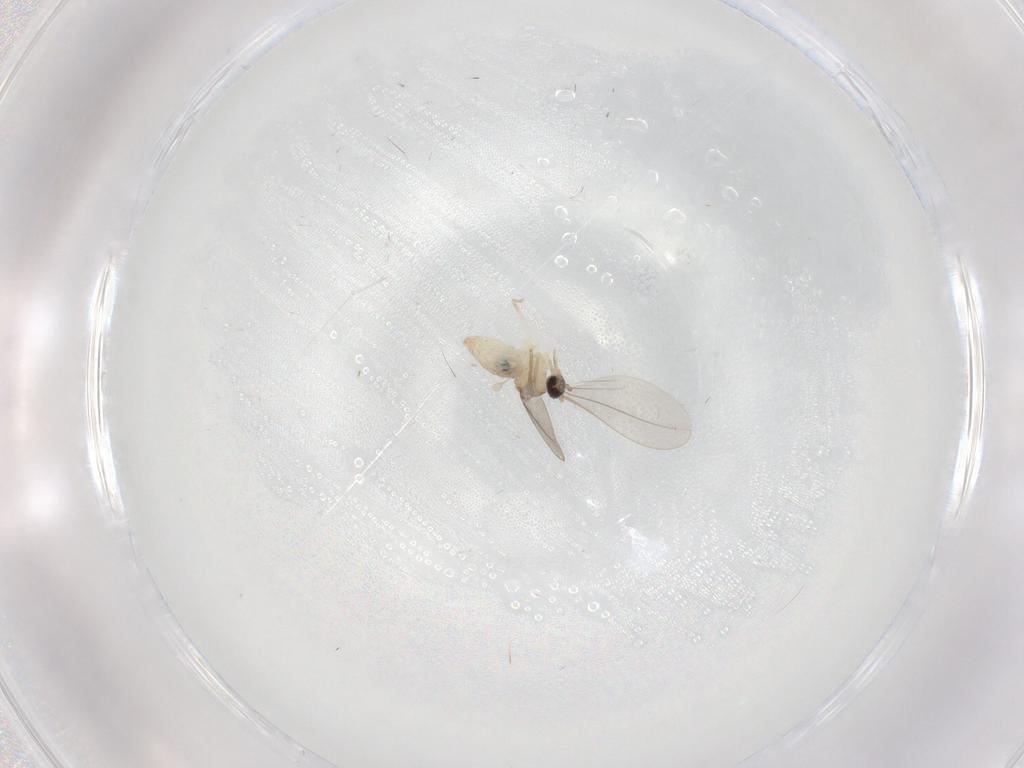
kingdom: Animalia
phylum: Arthropoda
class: Insecta
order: Diptera
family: Cecidomyiidae
